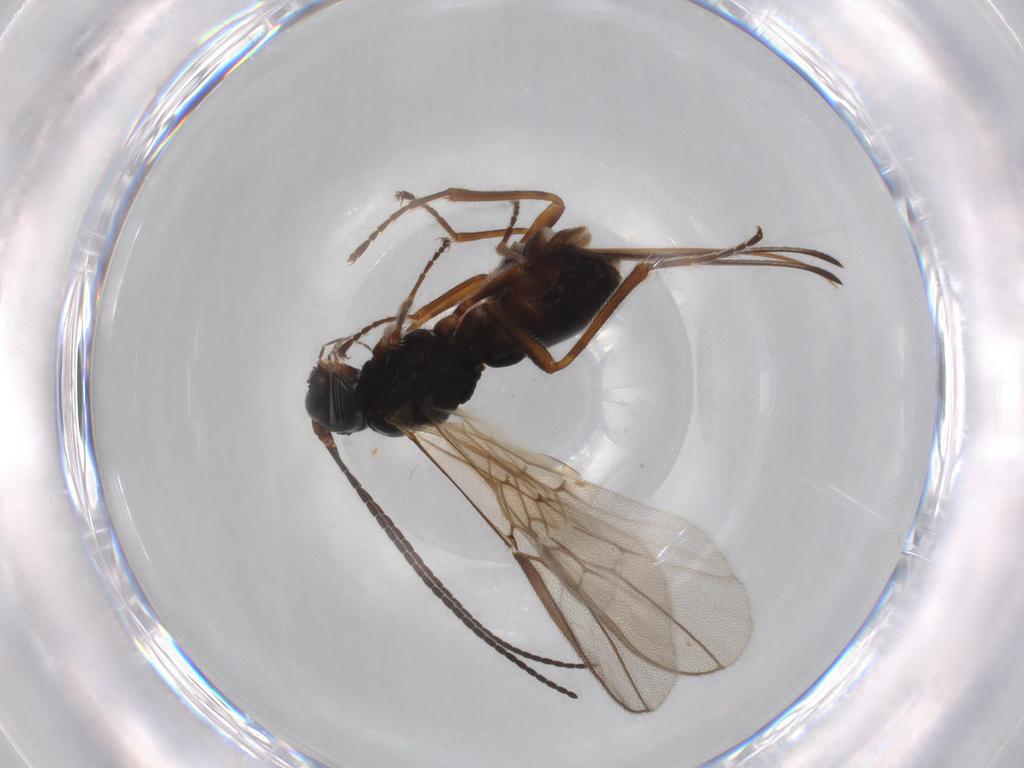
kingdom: Animalia
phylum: Arthropoda
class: Insecta
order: Hymenoptera
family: Braconidae
